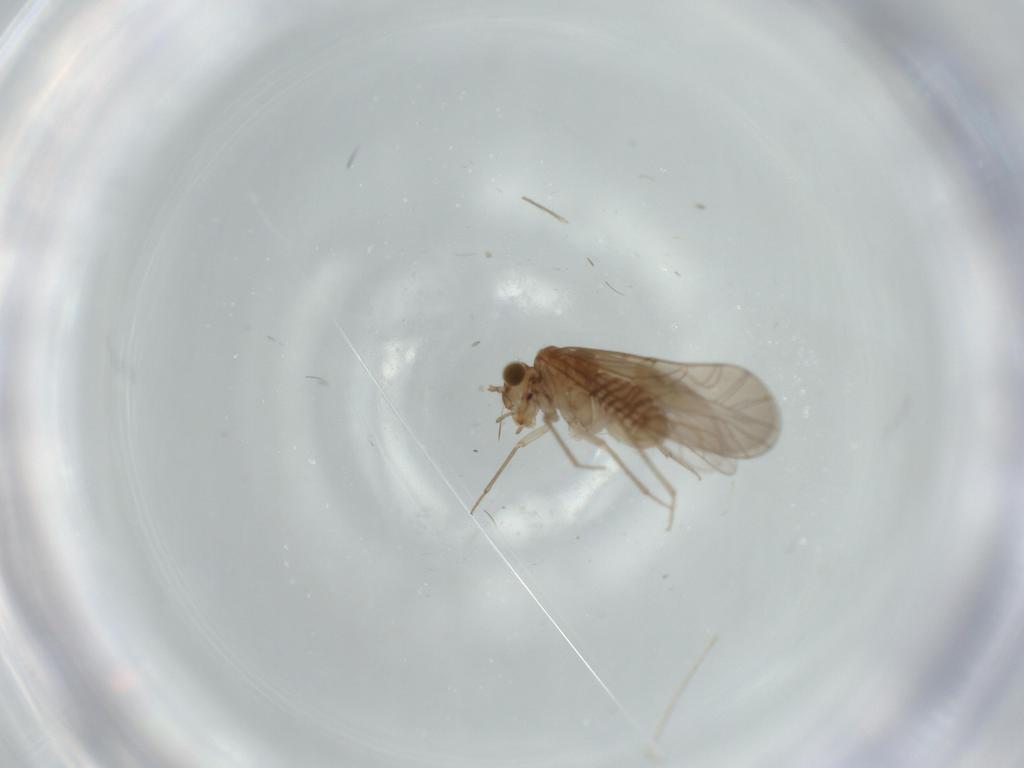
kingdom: Animalia
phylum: Arthropoda
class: Insecta
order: Psocodea
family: Lachesillidae
